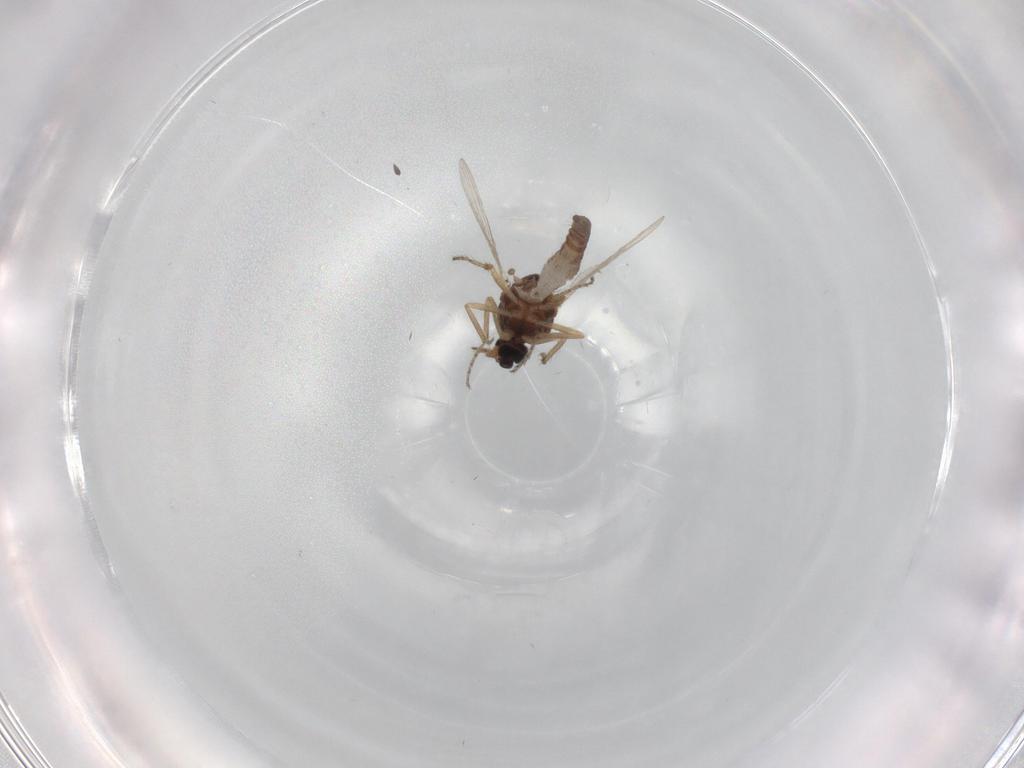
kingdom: Animalia
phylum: Arthropoda
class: Insecta
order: Diptera
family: Ceratopogonidae
